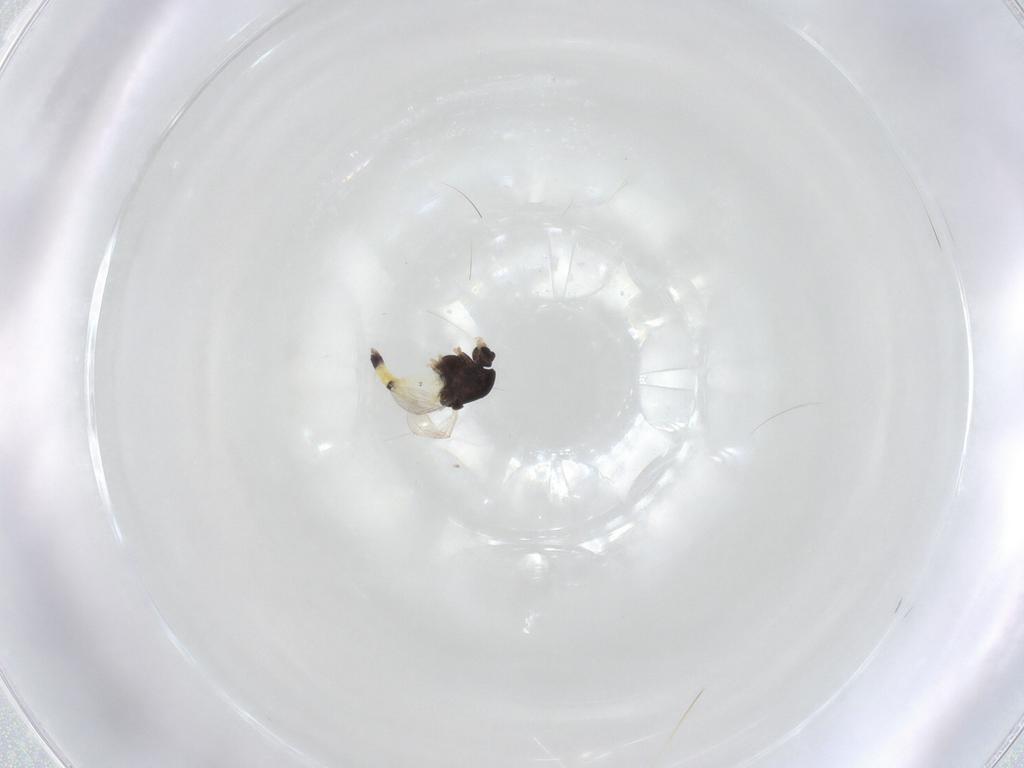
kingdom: Animalia
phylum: Arthropoda
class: Insecta
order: Diptera
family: Chironomidae
